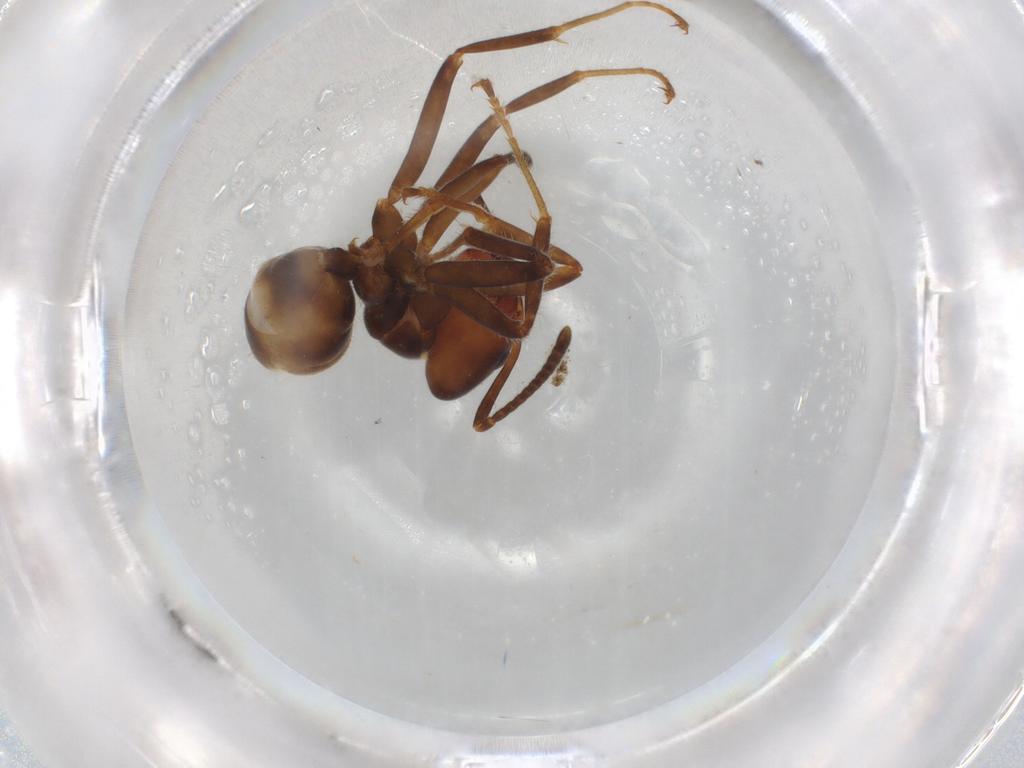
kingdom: Animalia
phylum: Arthropoda
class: Insecta
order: Hymenoptera
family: Formicidae
